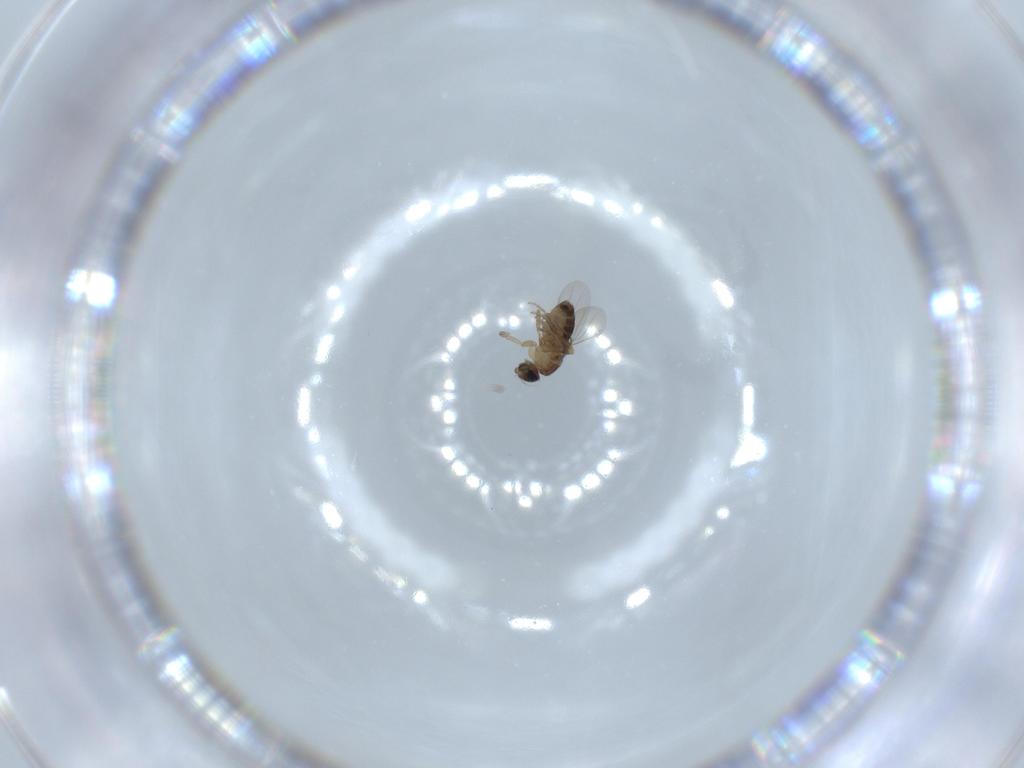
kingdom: Animalia
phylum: Arthropoda
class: Insecta
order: Diptera
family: Phoridae
